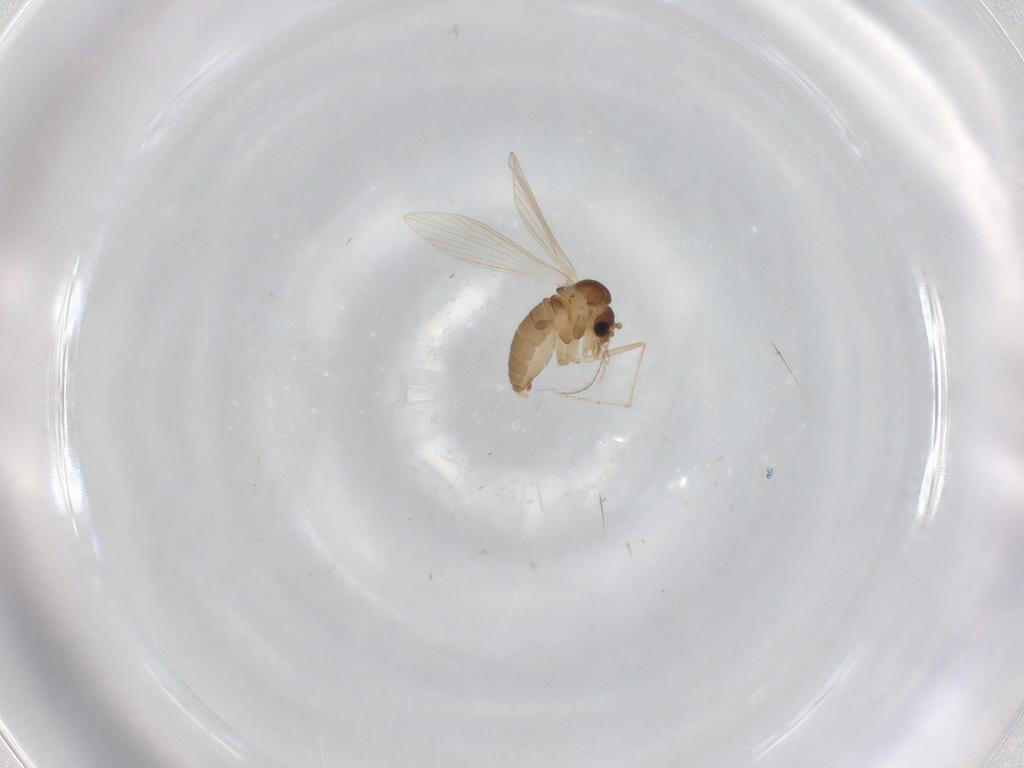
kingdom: Animalia
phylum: Arthropoda
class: Insecta
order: Diptera
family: Psychodidae
